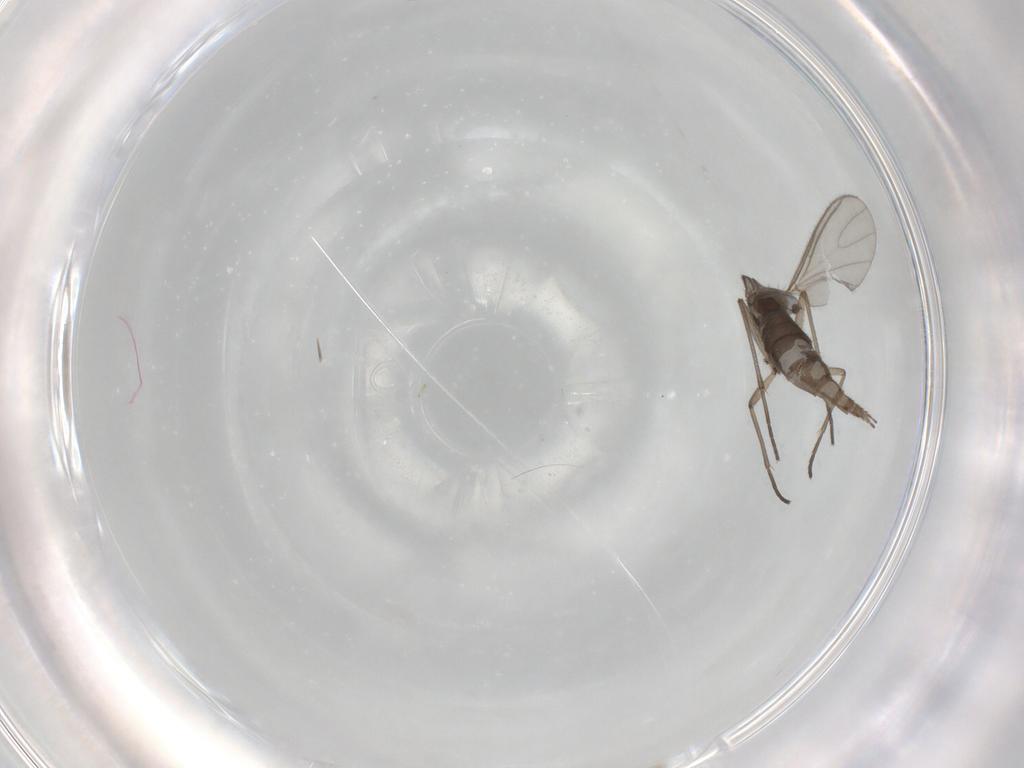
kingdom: Animalia
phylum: Arthropoda
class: Insecta
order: Diptera
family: Sciaridae
